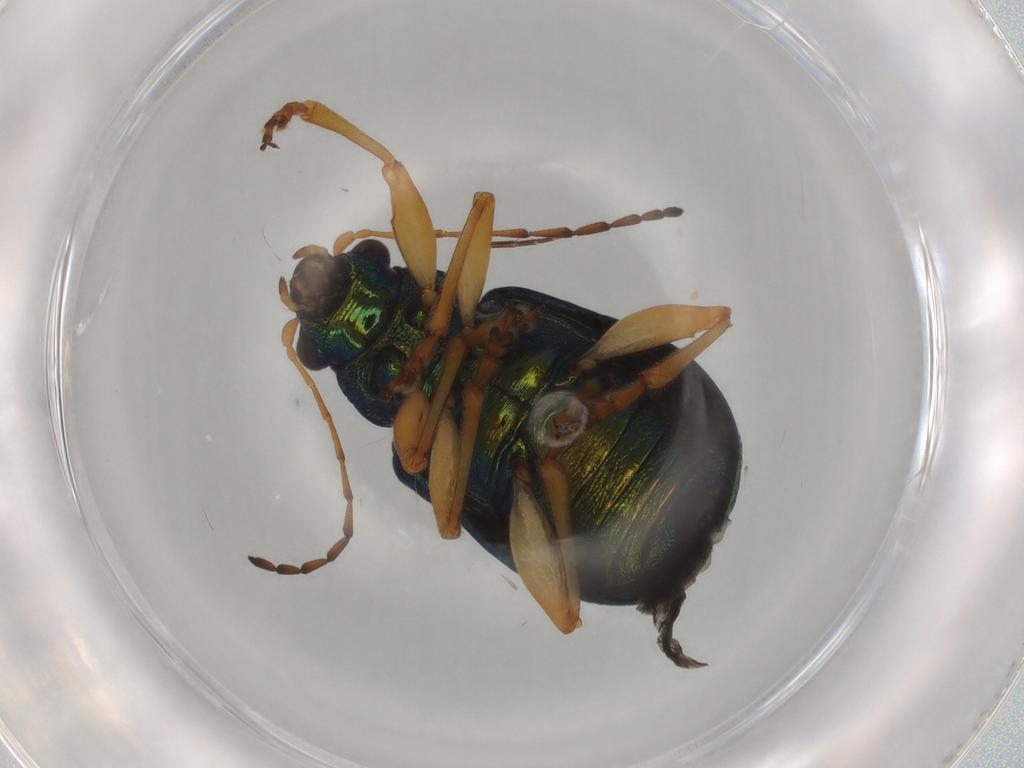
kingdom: Animalia
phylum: Arthropoda
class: Insecta
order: Coleoptera
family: Chrysomelidae
